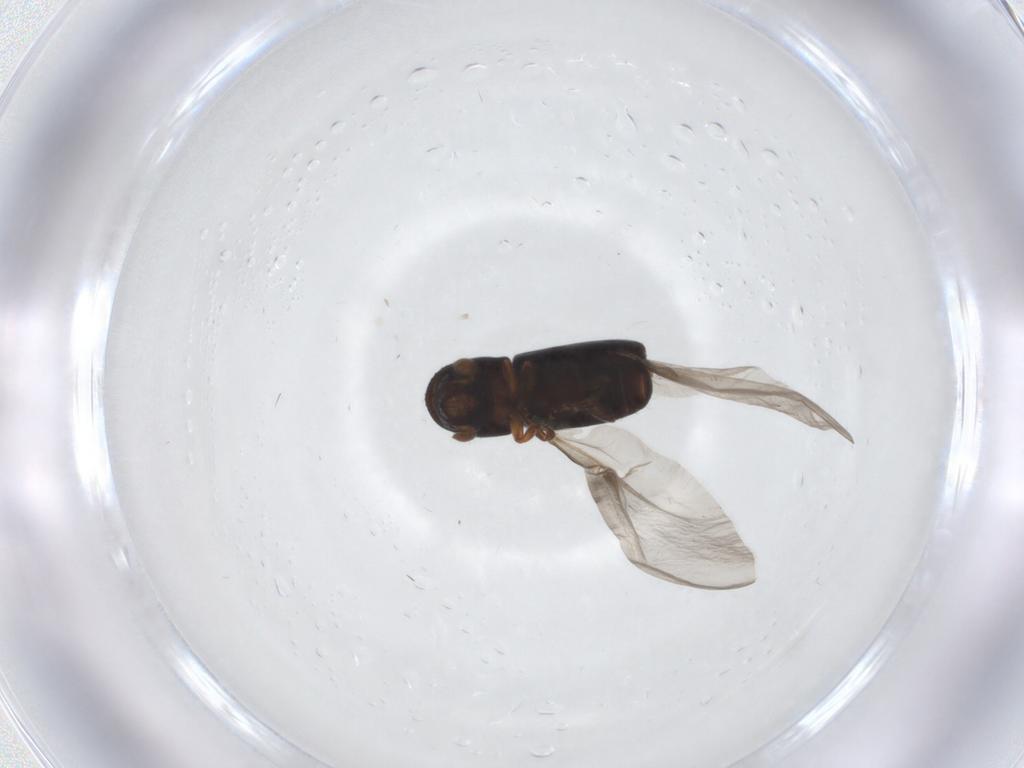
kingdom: Animalia
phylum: Arthropoda
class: Insecta
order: Coleoptera
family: Curculionidae
